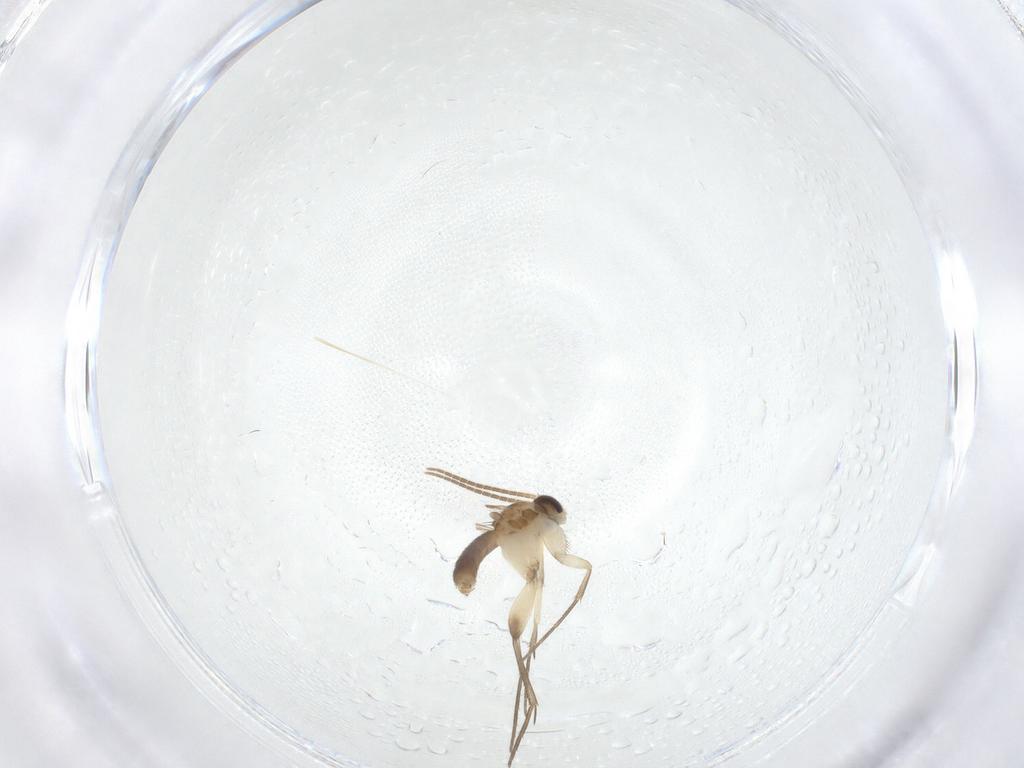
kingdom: Animalia
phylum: Arthropoda
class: Insecta
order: Diptera
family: Mycetophilidae
